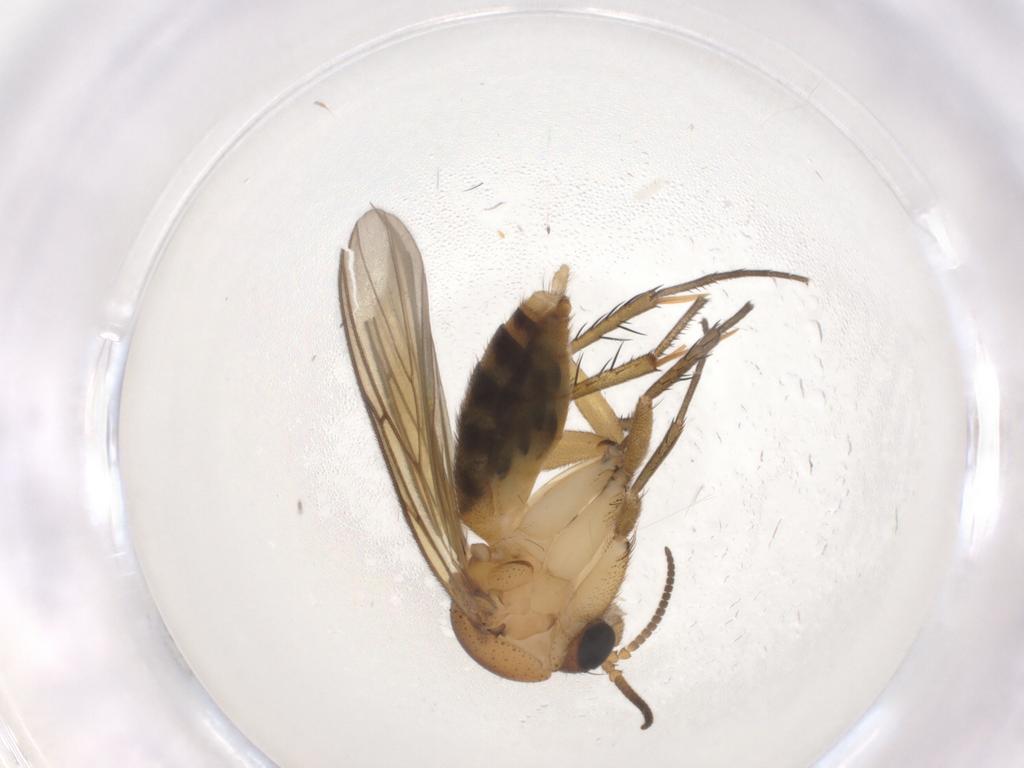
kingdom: Animalia
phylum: Arthropoda
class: Insecta
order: Diptera
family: Mycetophilidae
